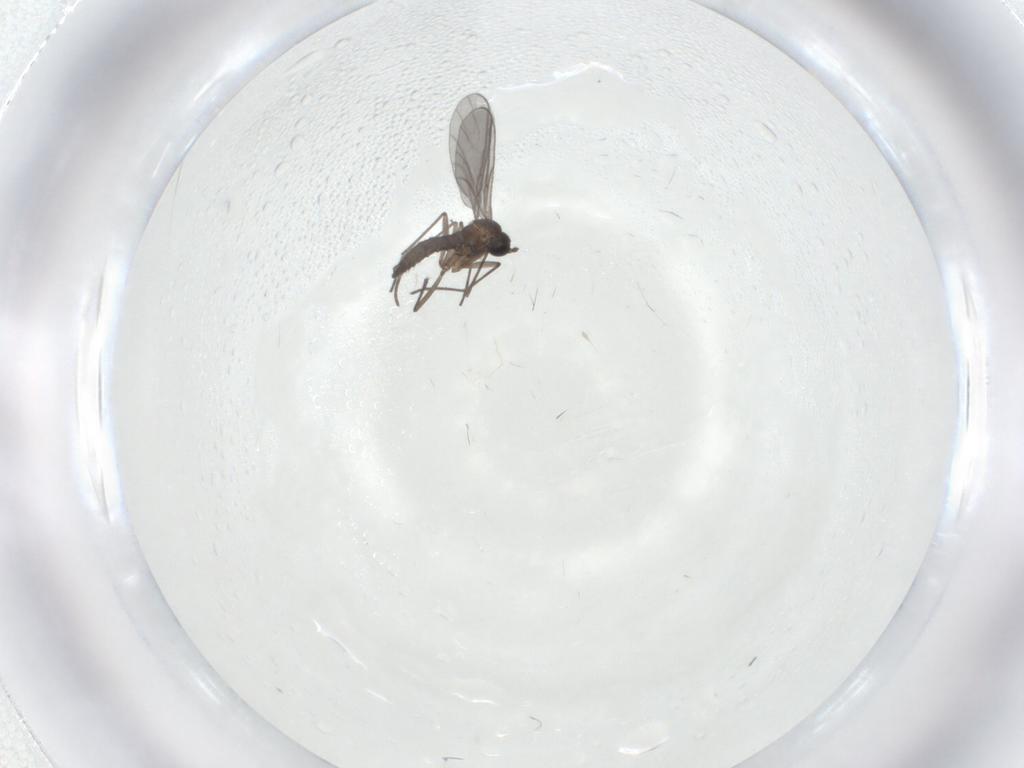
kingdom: Animalia
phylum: Arthropoda
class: Insecta
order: Diptera
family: Sciaridae
